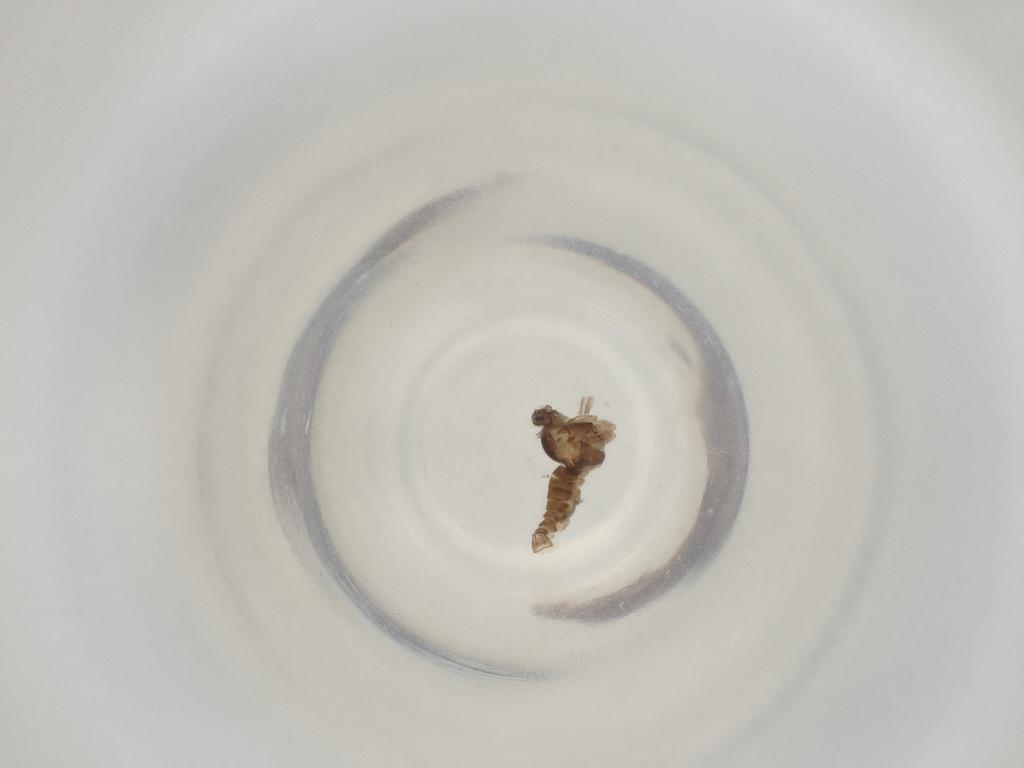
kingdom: Animalia
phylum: Arthropoda
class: Insecta
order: Diptera
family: Cecidomyiidae
